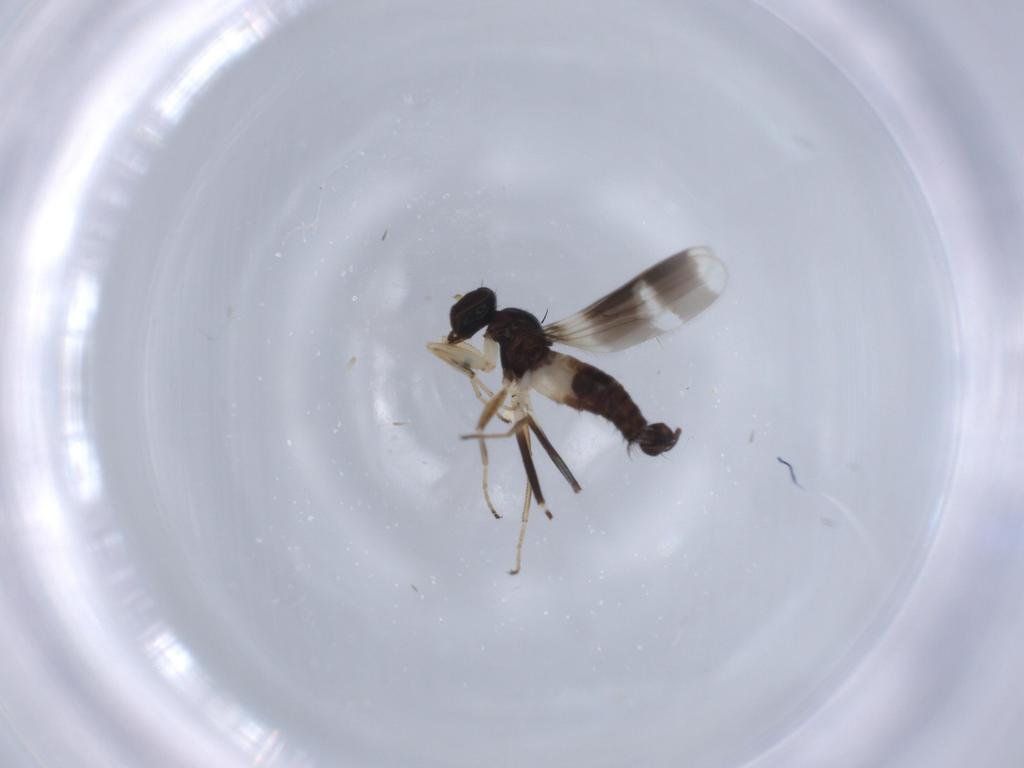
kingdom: Animalia
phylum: Arthropoda
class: Insecta
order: Diptera
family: Hybotidae
